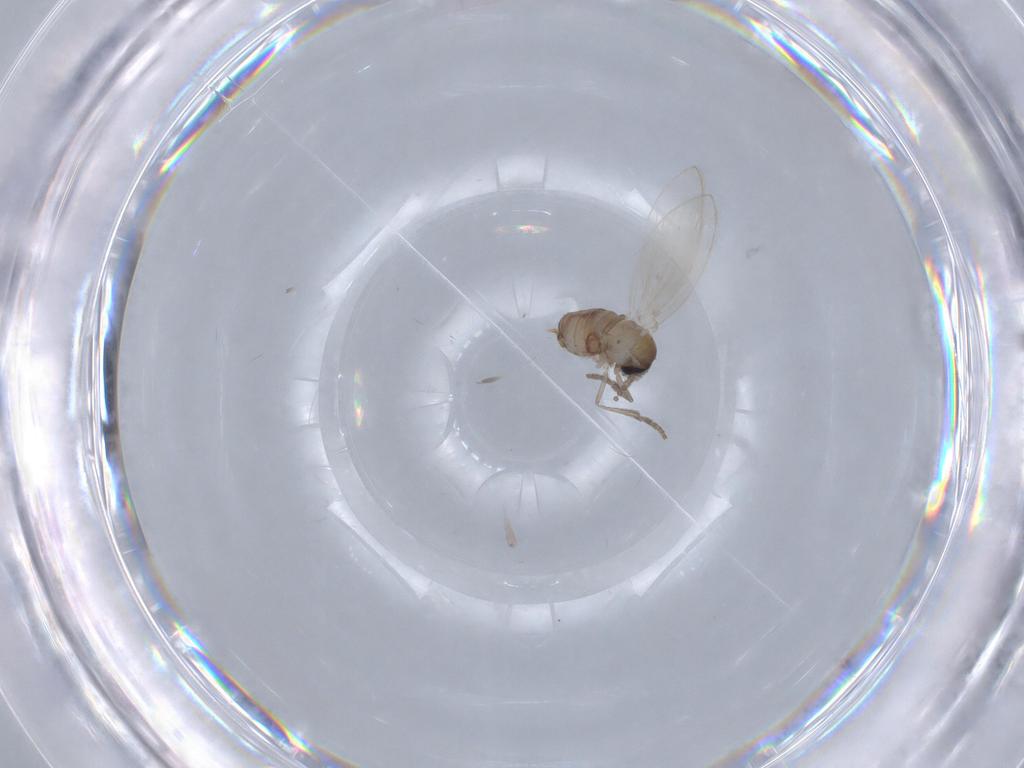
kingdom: Animalia
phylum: Arthropoda
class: Insecta
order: Diptera
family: Psychodidae
